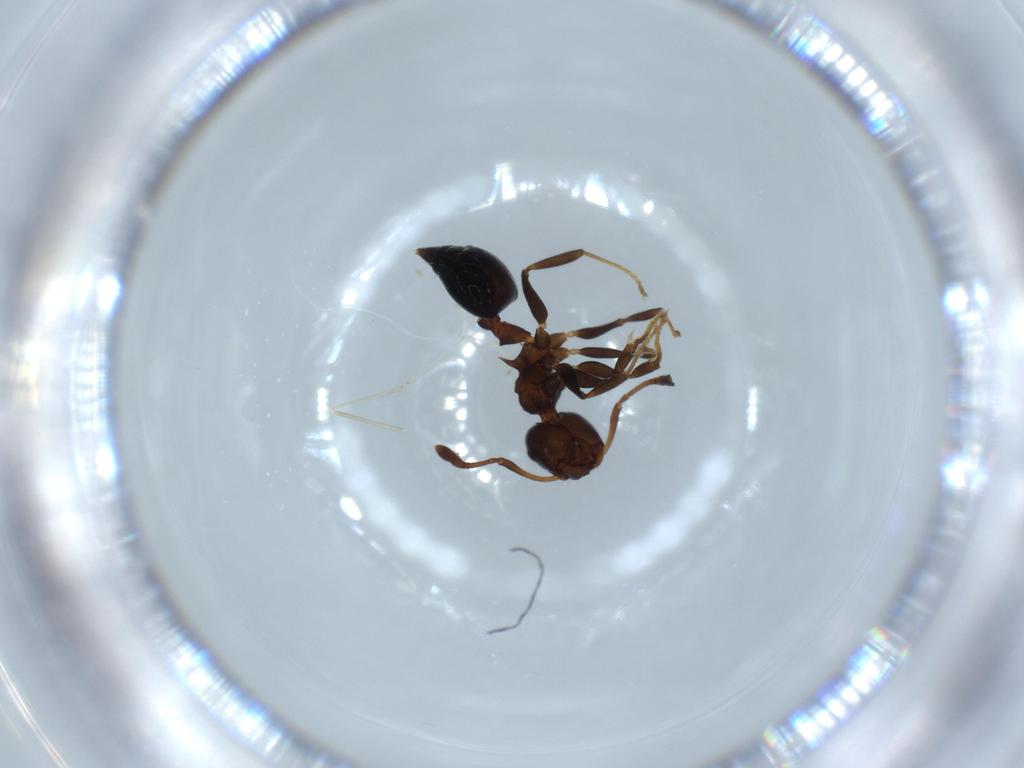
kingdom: Animalia
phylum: Arthropoda
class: Insecta
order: Hymenoptera
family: Formicidae
